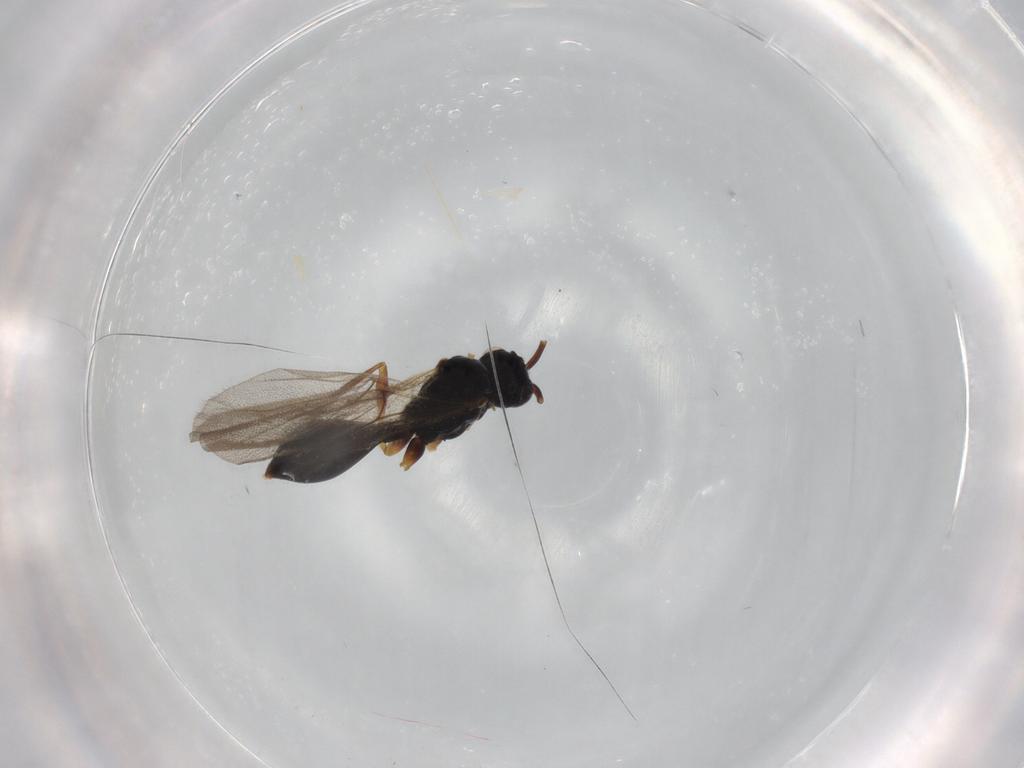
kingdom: Animalia
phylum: Arthropoda
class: Insecta
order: Hymenoptera
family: Diapriidae
